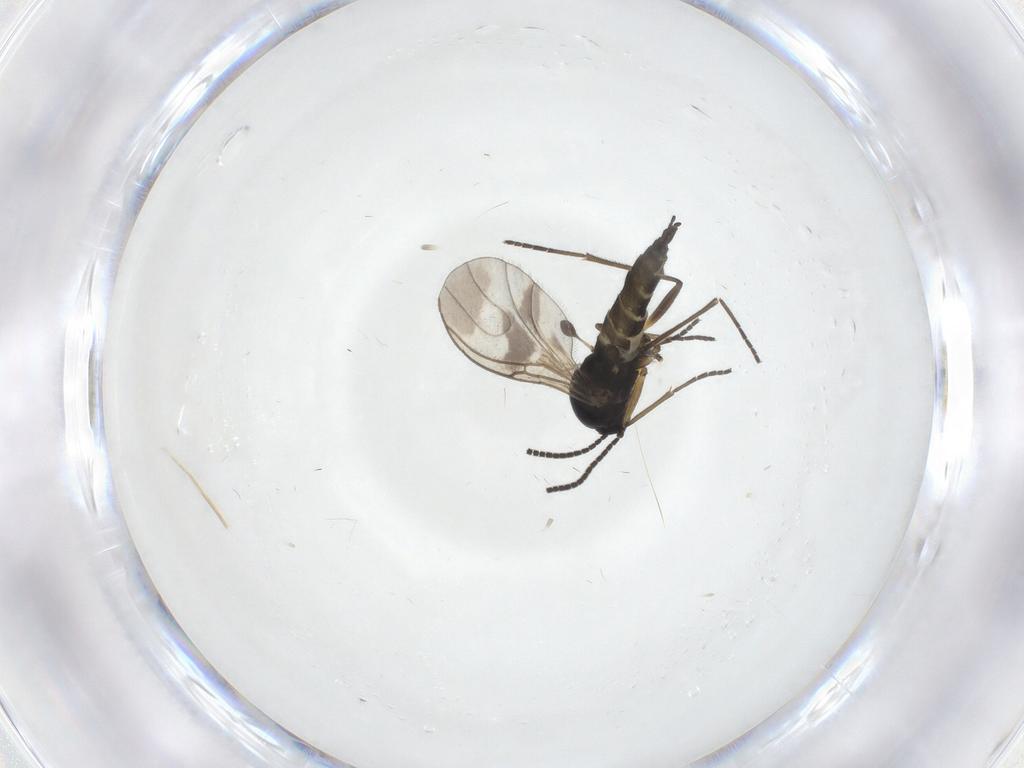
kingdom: Animalia
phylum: Arthropoda
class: Insecta
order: Diptera
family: Sciaridae
